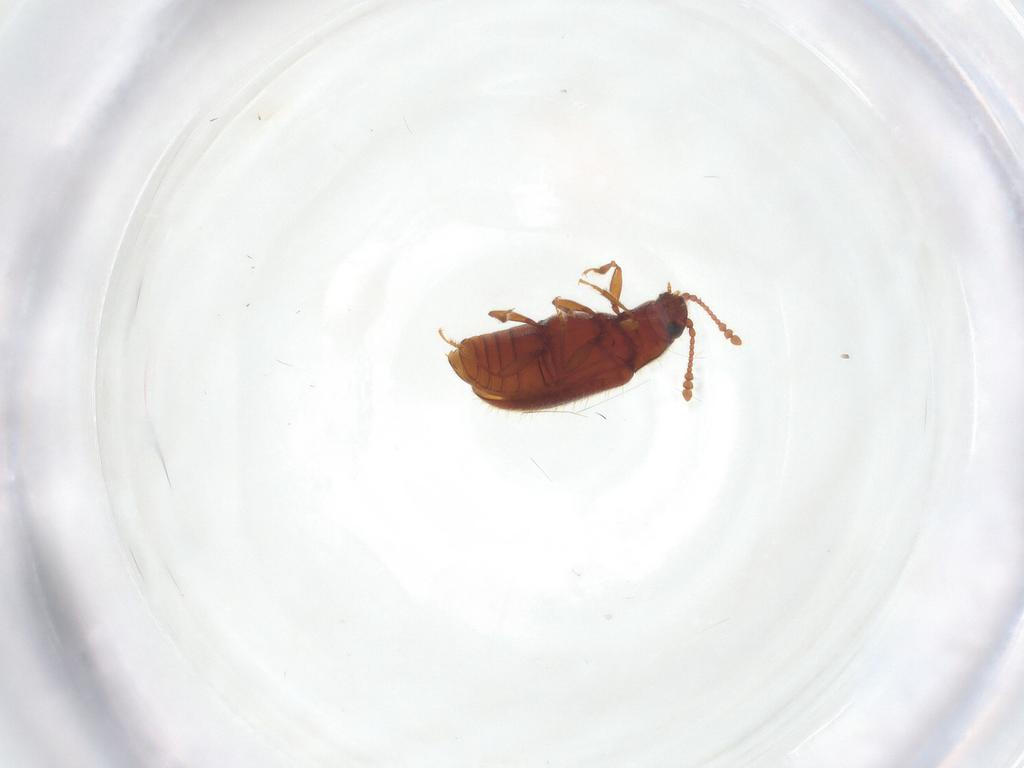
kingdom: Animalia
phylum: Arthropoda
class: Insecta
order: Coleoptera
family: Cryptophagidae
